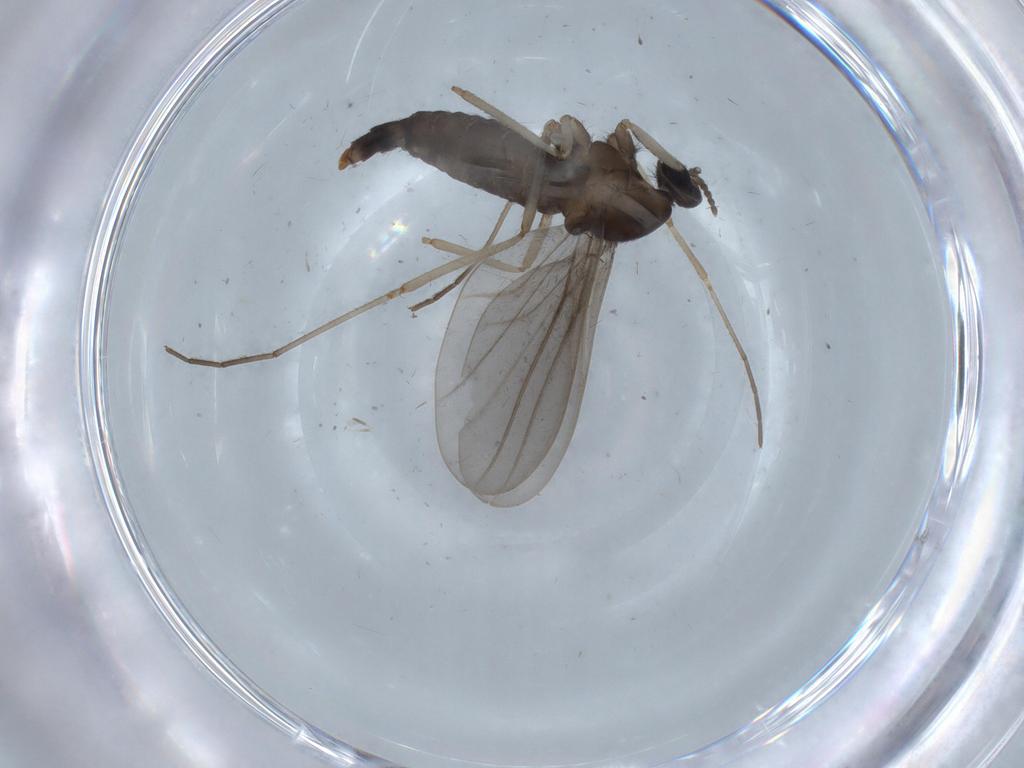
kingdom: Animalia
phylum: Arthropoda
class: Insecta
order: Diptera
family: Cecidomyiidae
